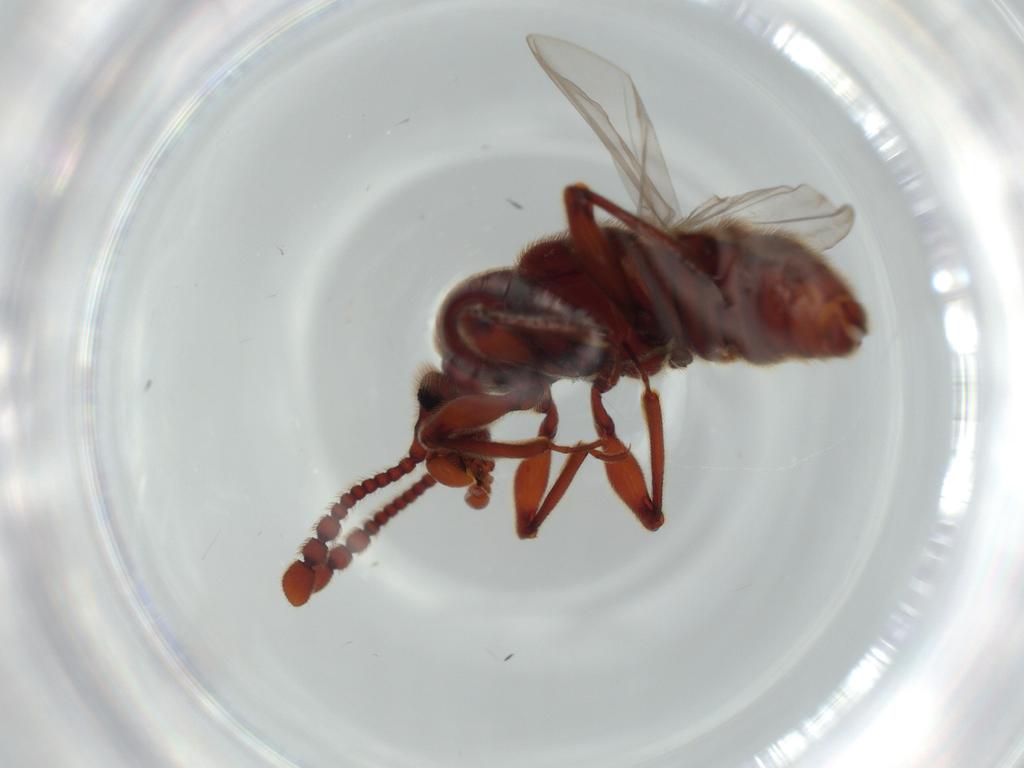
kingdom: Animalia
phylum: Arthropoda
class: Insecta
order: Coleoptera
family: Staphylinidae
